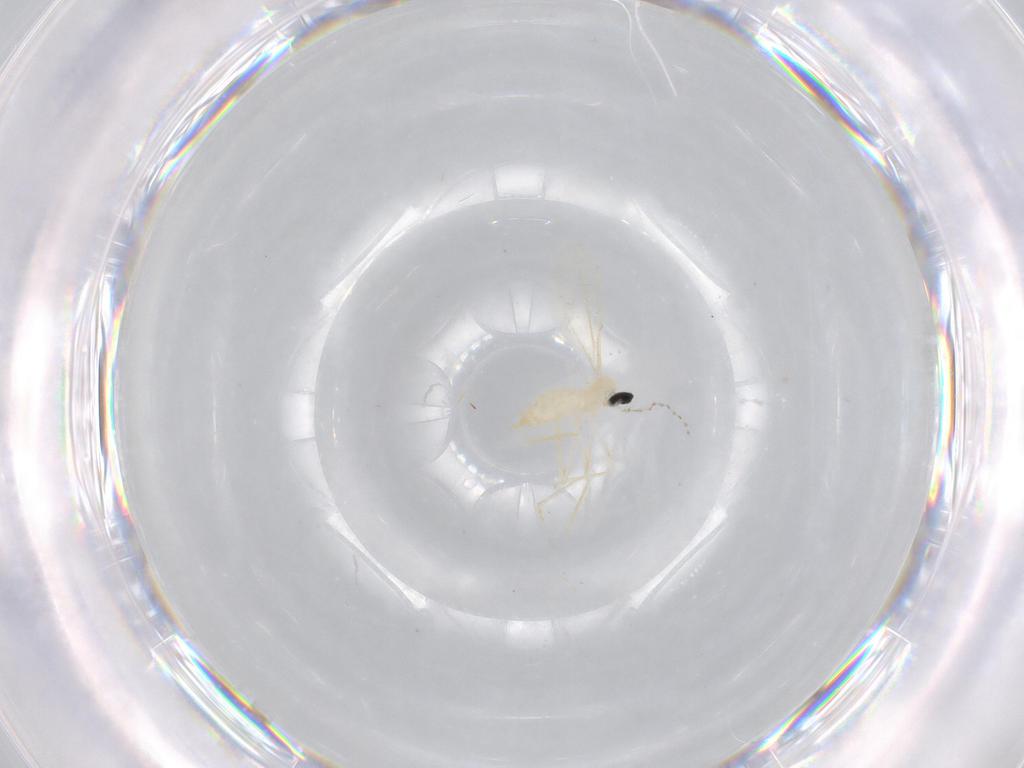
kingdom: Animalia
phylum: Arthropoda
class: Insecta
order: Diptera
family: Cecidomyiidae
